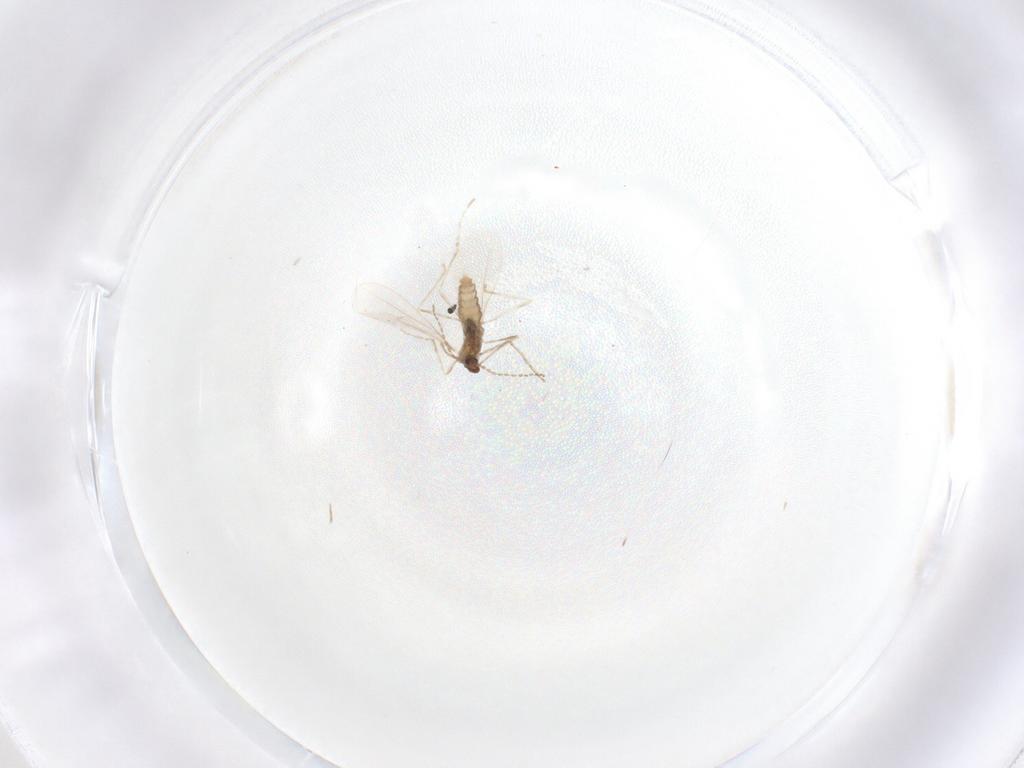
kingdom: Animalia
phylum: Arthropoda
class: Insecta
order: Diptera
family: Cecidomyiidae
